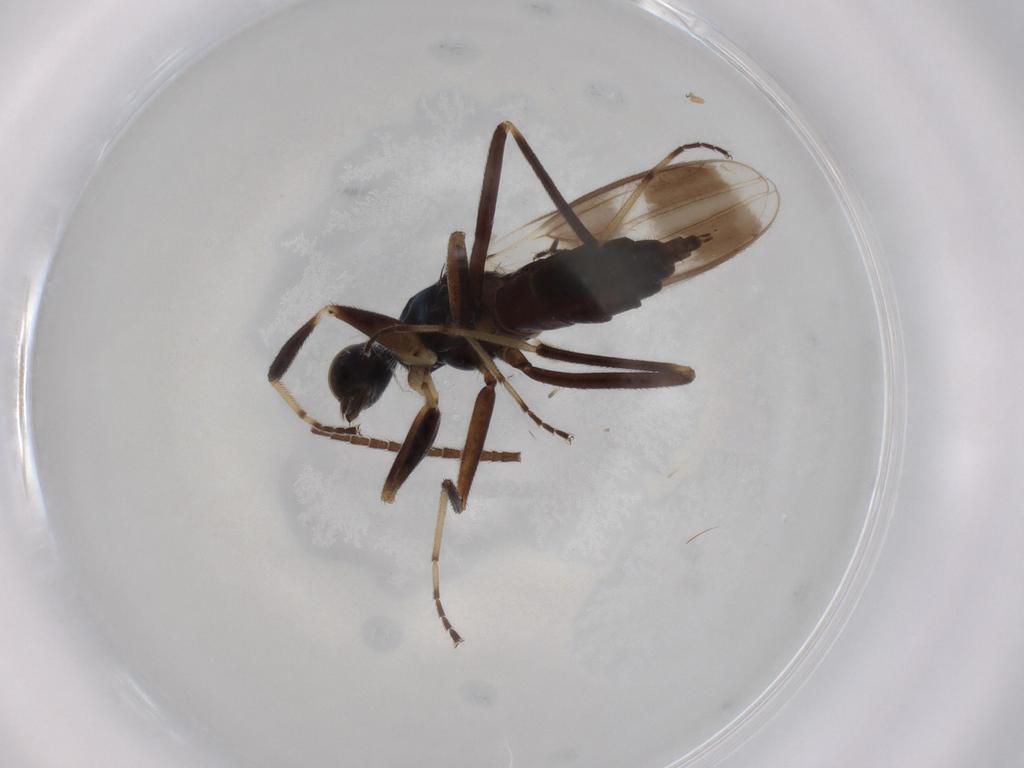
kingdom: Animalia
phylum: Arthropoda
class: Insecta
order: Diptera
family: Hybotidae
